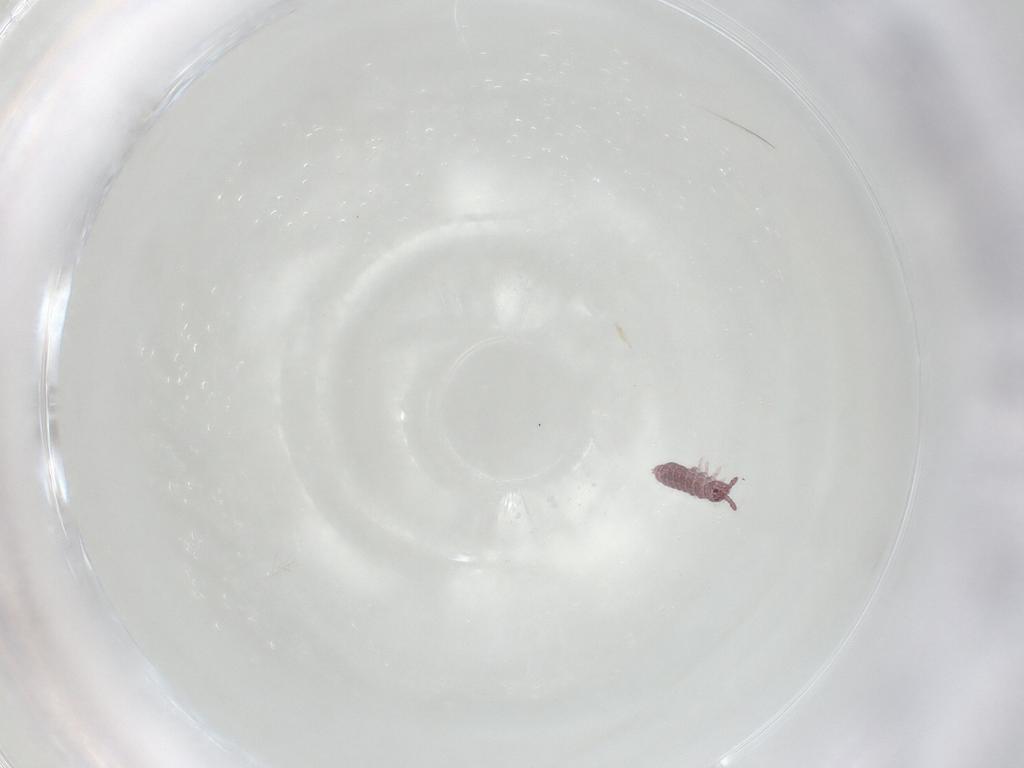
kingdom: Animalia
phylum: Arthropoda
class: Collembola
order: Poduromorpha
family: Hypogastruridae
